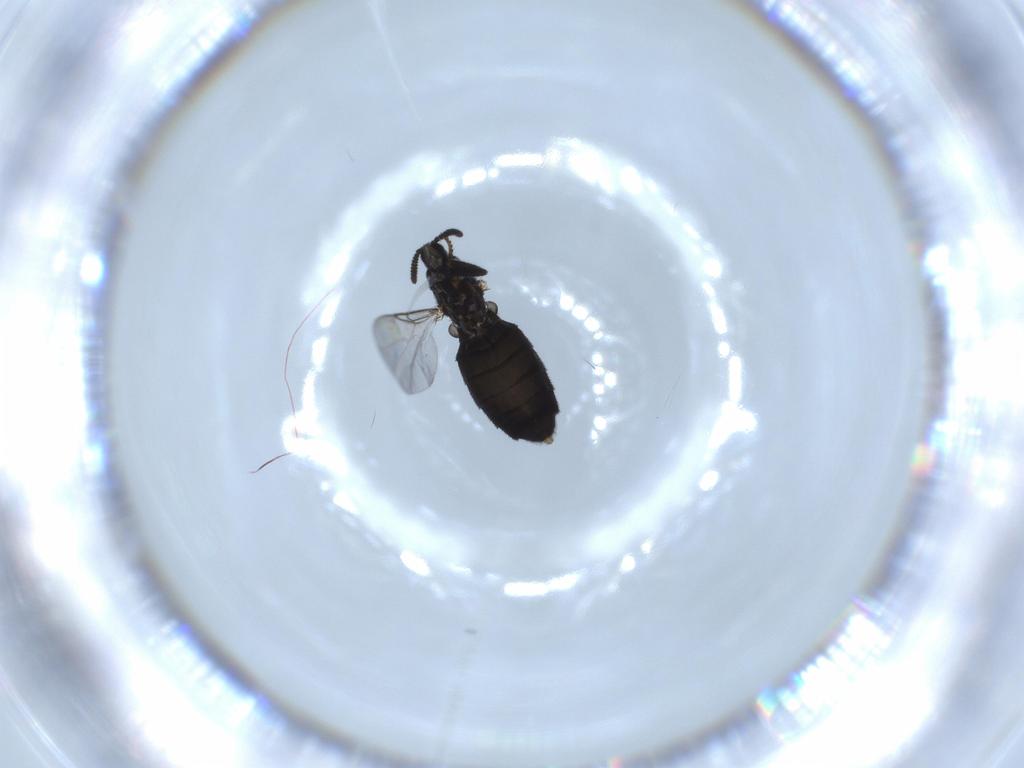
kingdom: Animalia
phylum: Arthropoda
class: Insecta
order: Diptera
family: Scatopsidae
